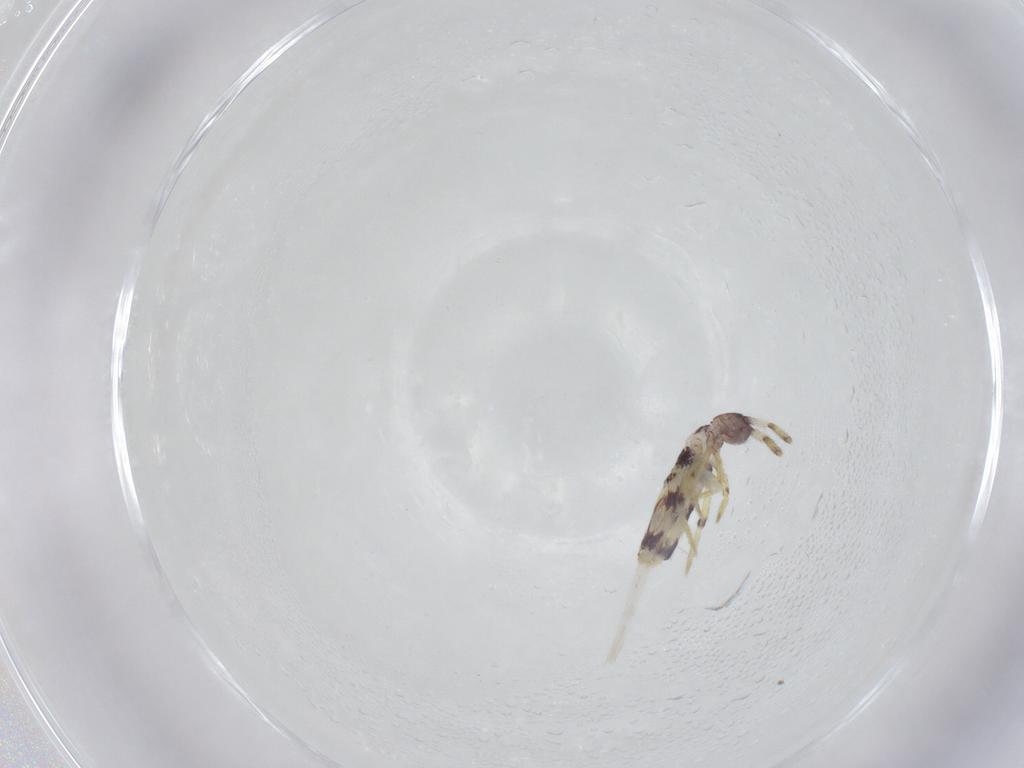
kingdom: Animalia
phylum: Arthropoda
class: Collembola
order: Entomobryomorpha
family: Entomobryidae
